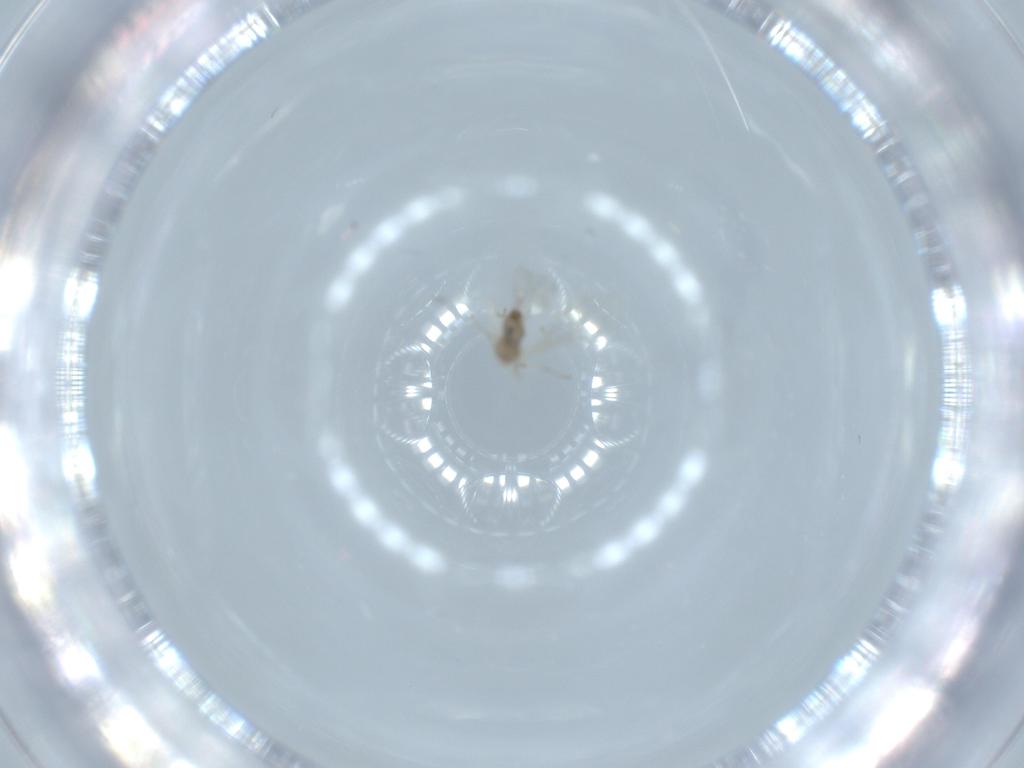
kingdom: Animalia
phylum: Arthropoda
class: Insecta
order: Diptera
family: Cecidomyiidae
